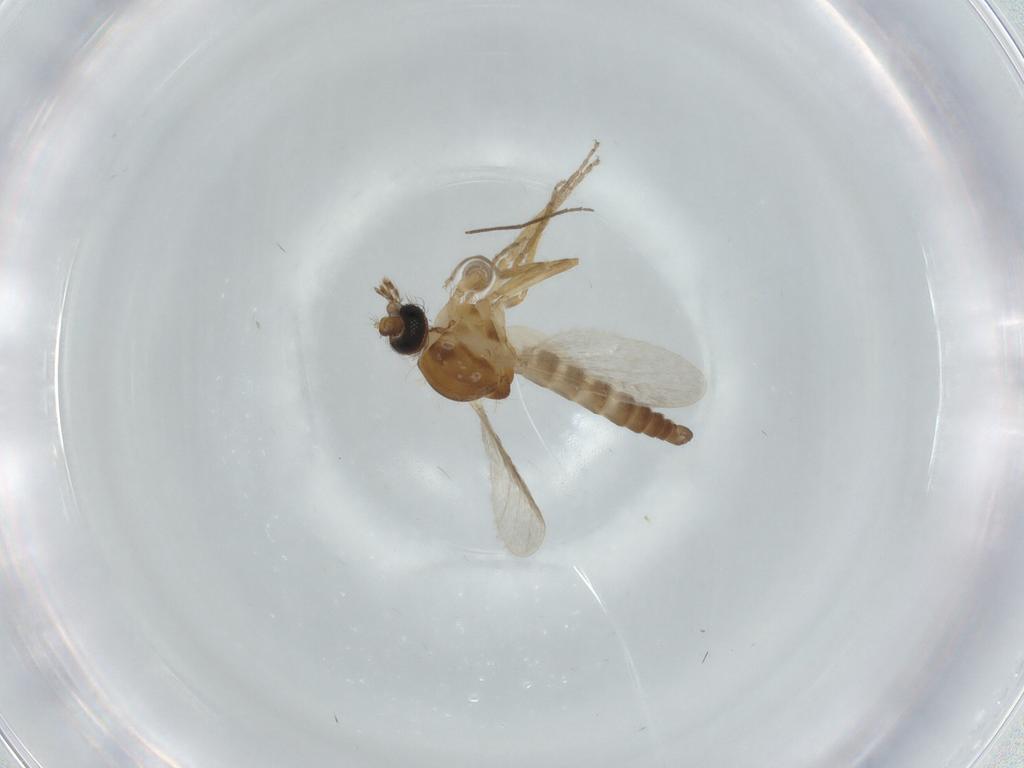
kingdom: Animalia
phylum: Arthropoda
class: Insecta
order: Diptera
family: Ceratopogonidae
